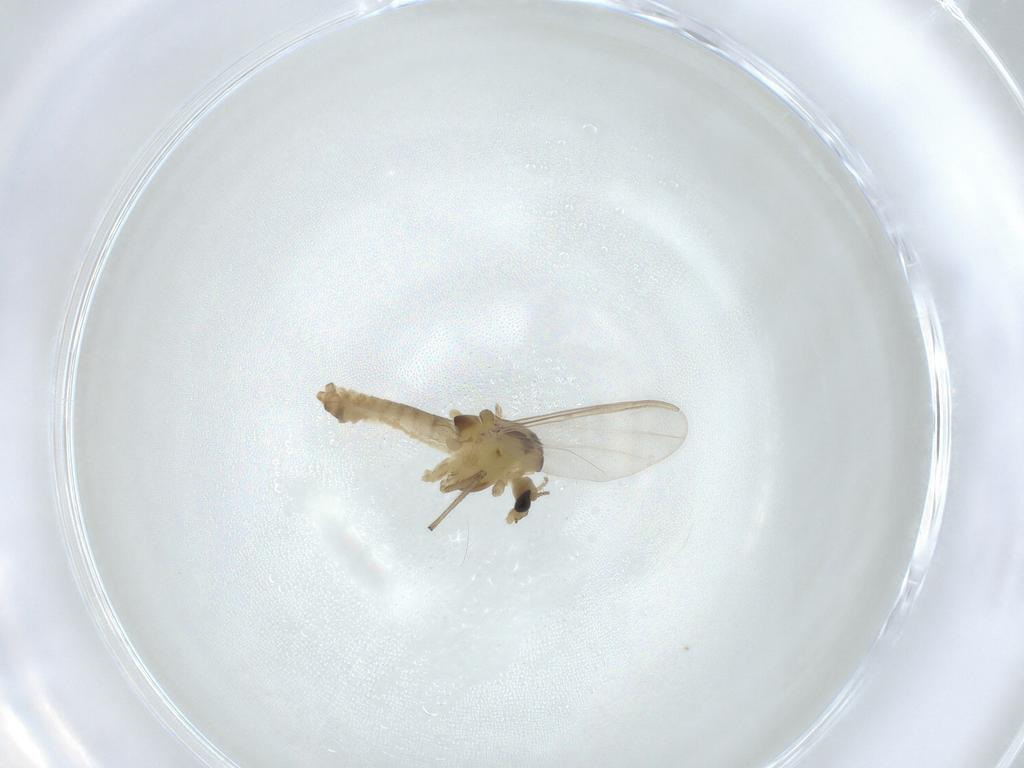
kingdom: Animalia
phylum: Arthropoda
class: Insecta
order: Diptera
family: Chironomidae
